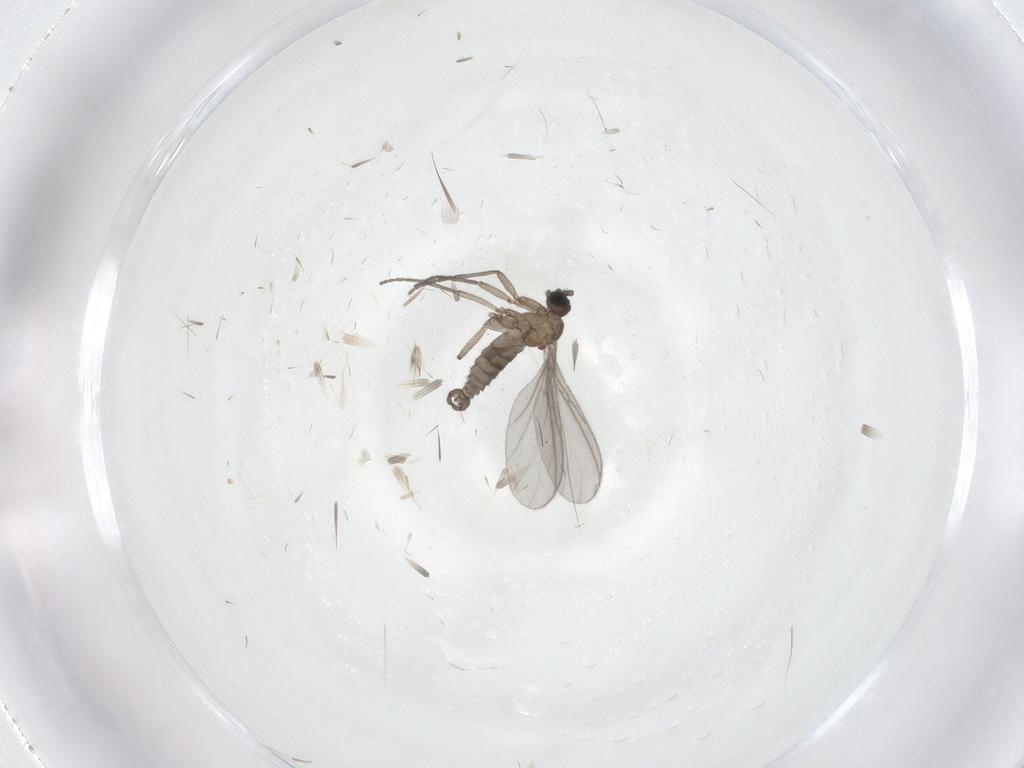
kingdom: Animalia
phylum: Arthropoda
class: Insecta
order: Diptera
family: Sciaridae
